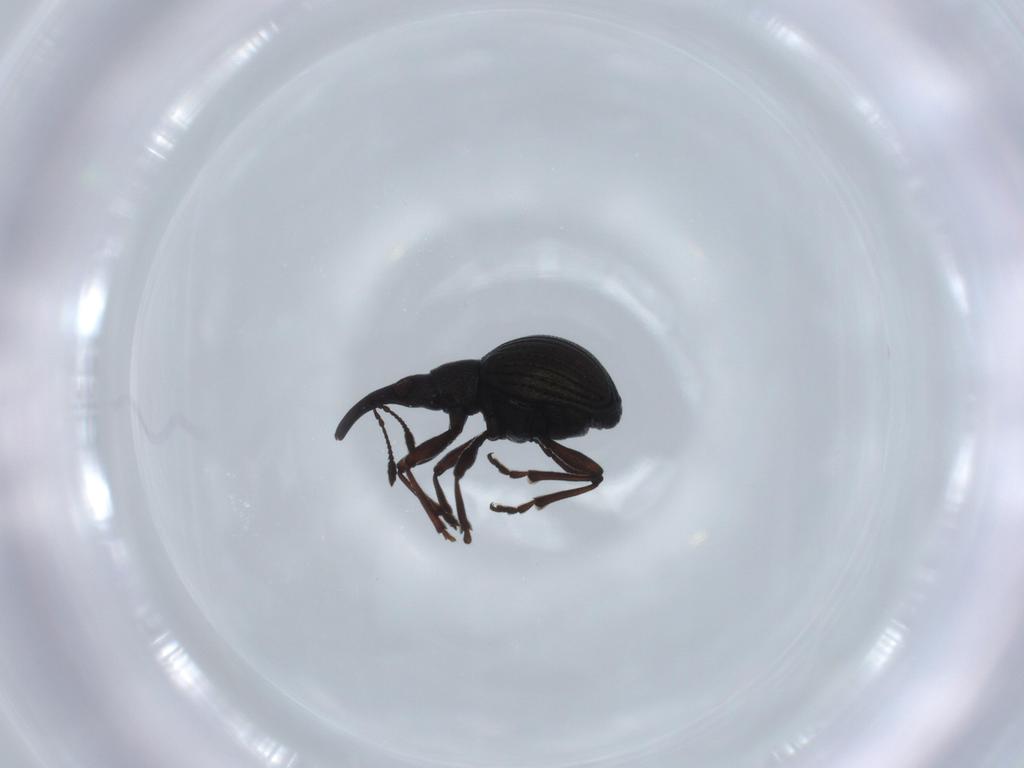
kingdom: Animalia
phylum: Arthropoda
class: Insecta
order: Coleoptera
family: Brentidae
